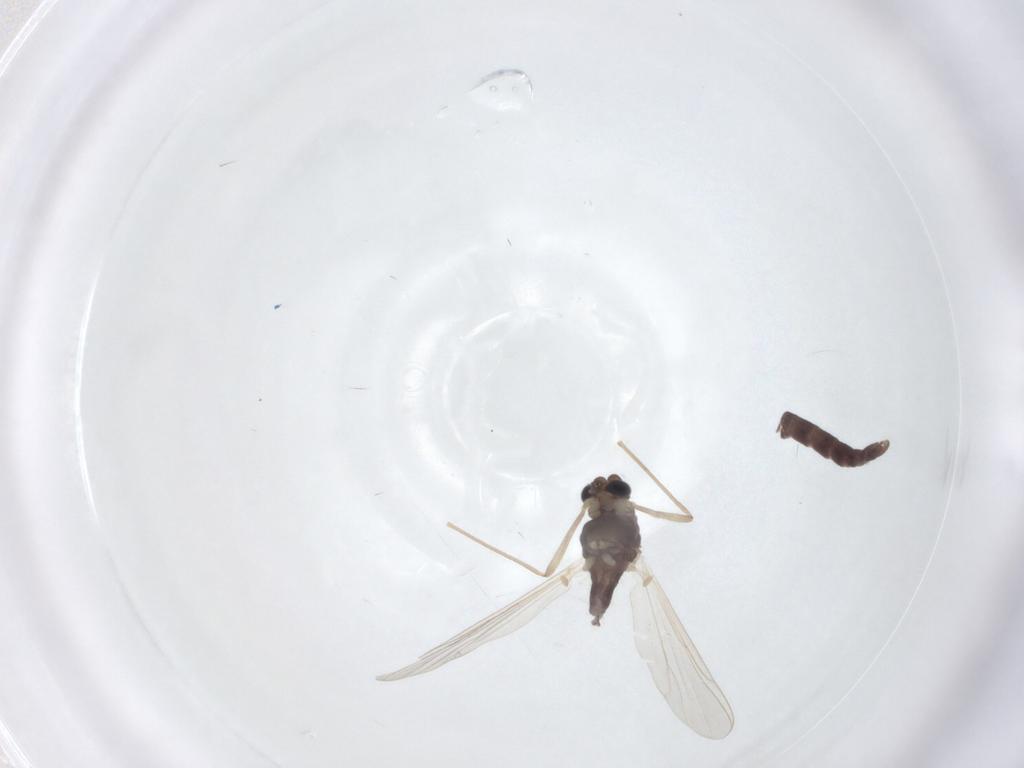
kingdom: Animalia
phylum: Arthropoda
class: Insecta
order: Diptera
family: Chironomidae
